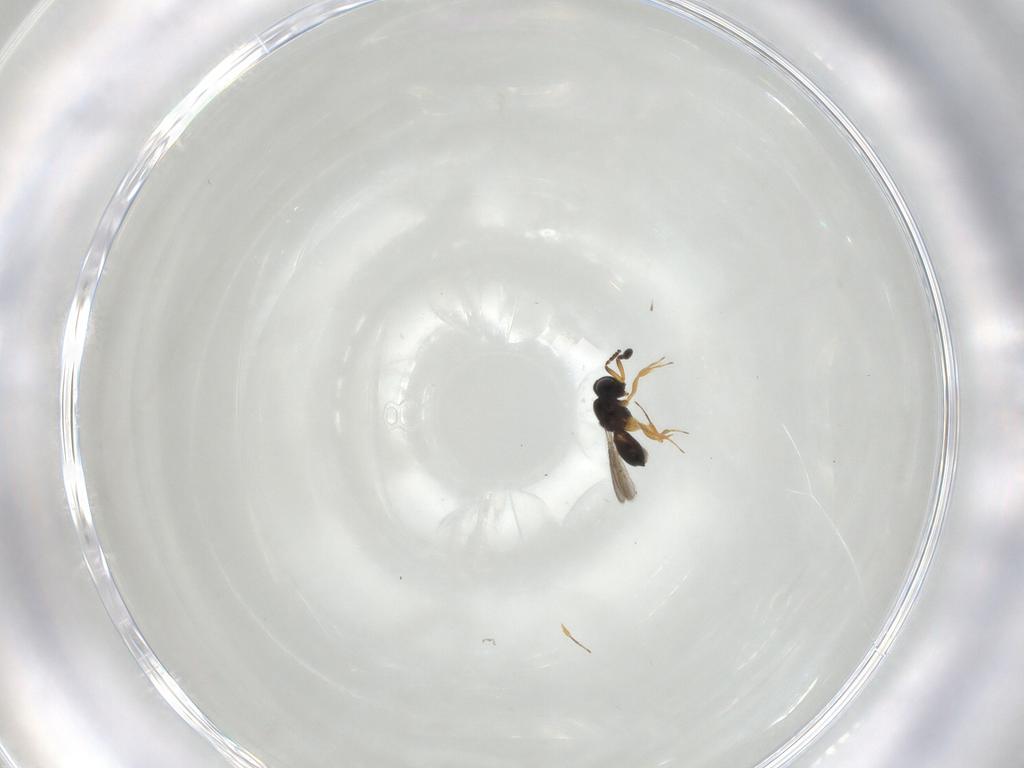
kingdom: Animalia
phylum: Arthropoda
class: Insecta
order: Hymenoptera
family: Scelionidae
